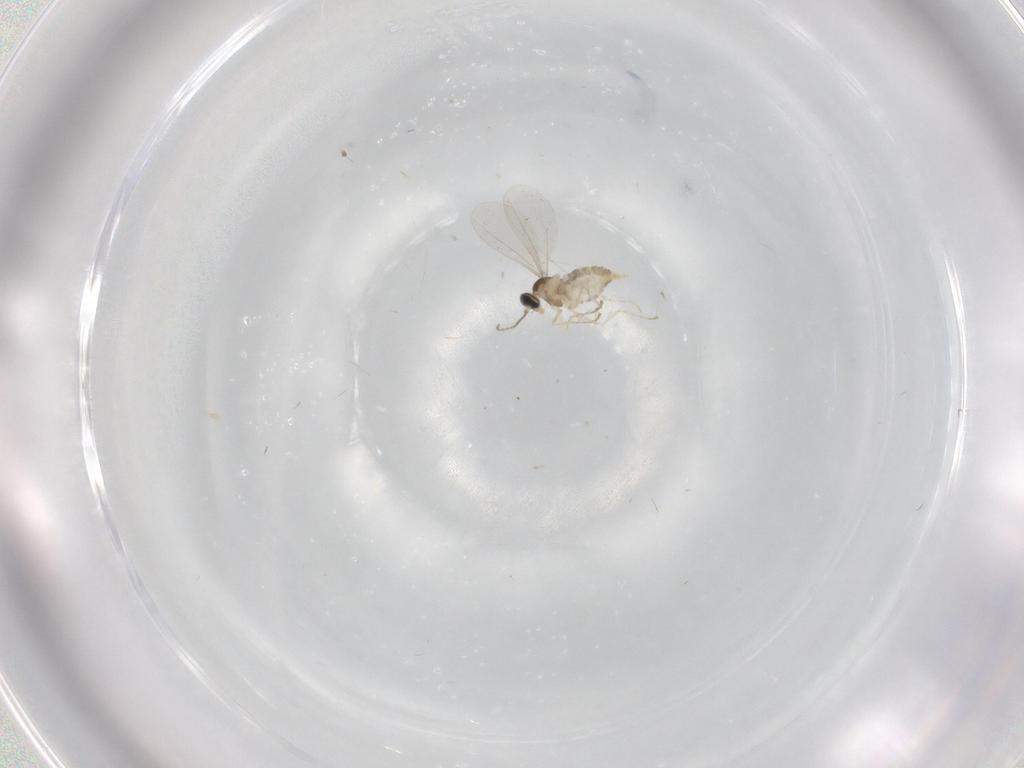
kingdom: Animalia
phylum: Arthropoda
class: Insecta
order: Diptera
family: Cecidomyiidae
